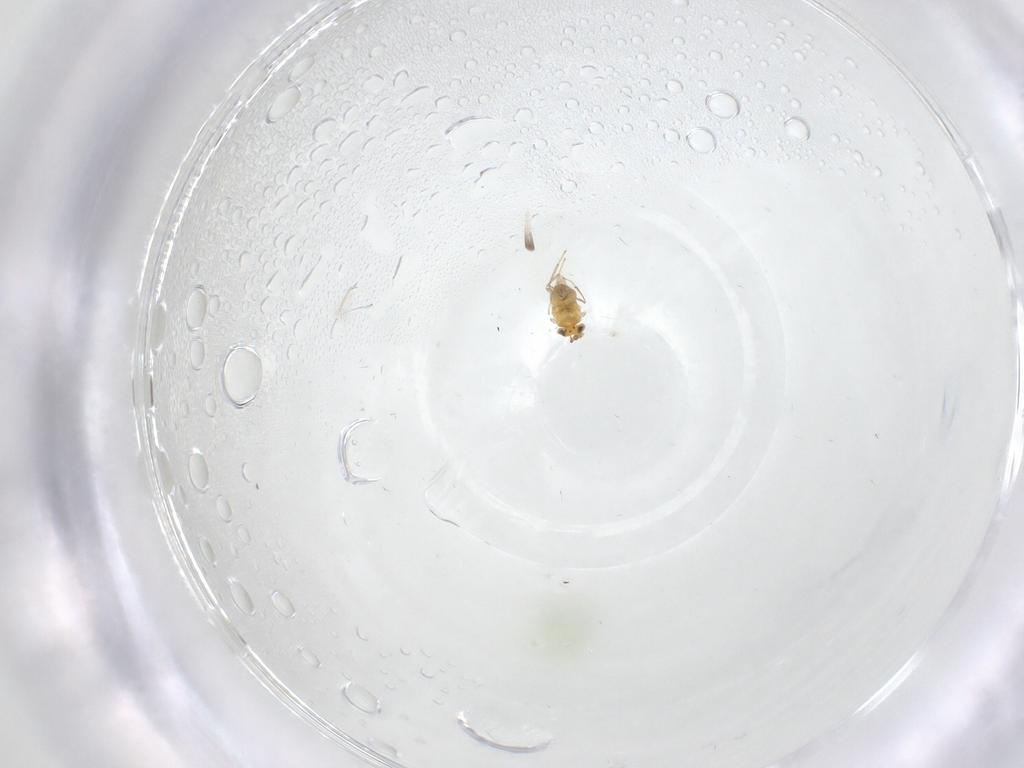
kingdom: Animalia
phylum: Arthropoda
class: Insecta
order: Hymenoptera
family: Aphelinidae
